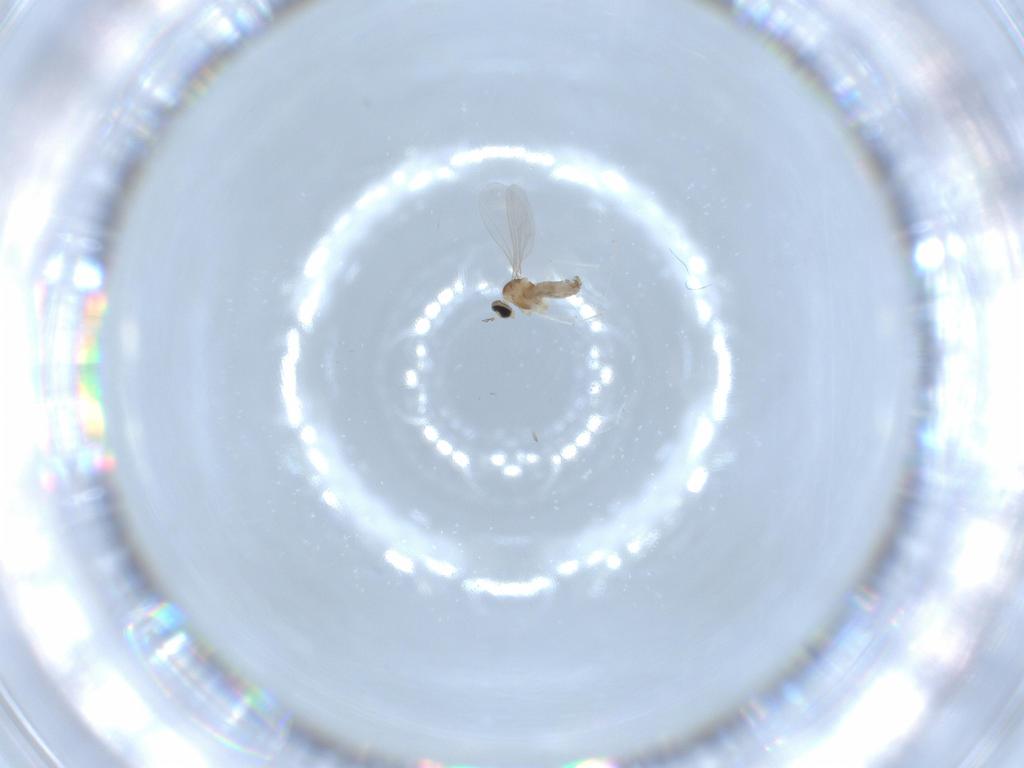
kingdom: Animalia
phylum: Arthropoda
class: Insecta
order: Diptera
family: Cecidomyiidae
